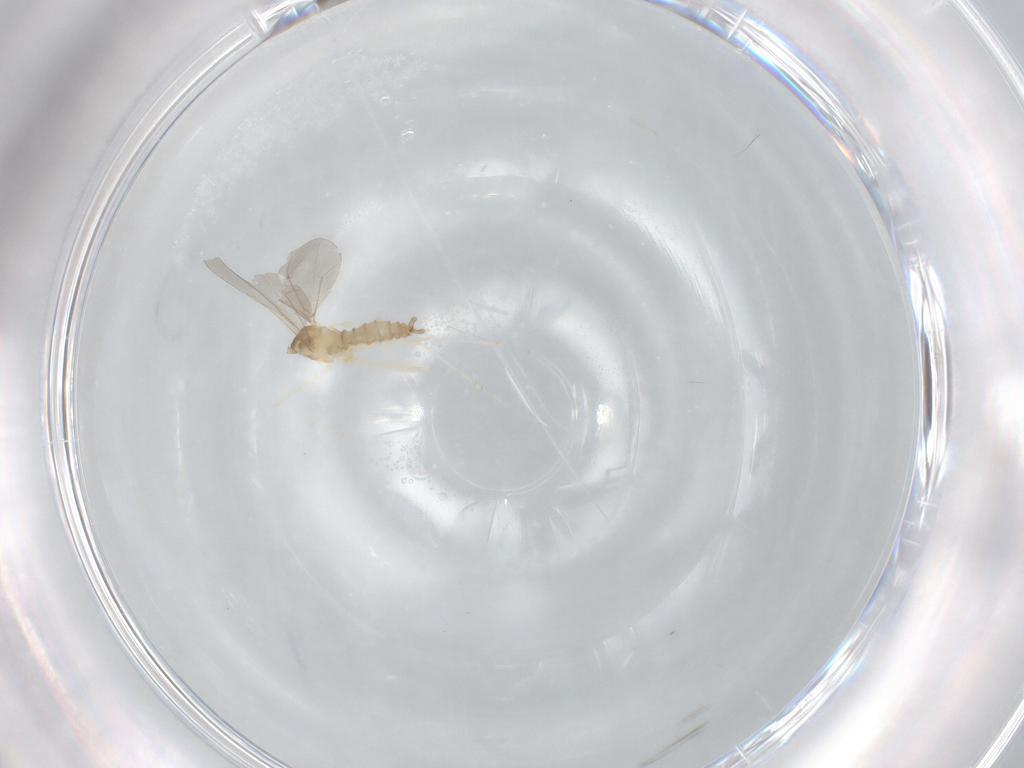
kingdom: Animalia
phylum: Arthropoda
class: Insecta
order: Diptera
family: Cecidomyiidae
